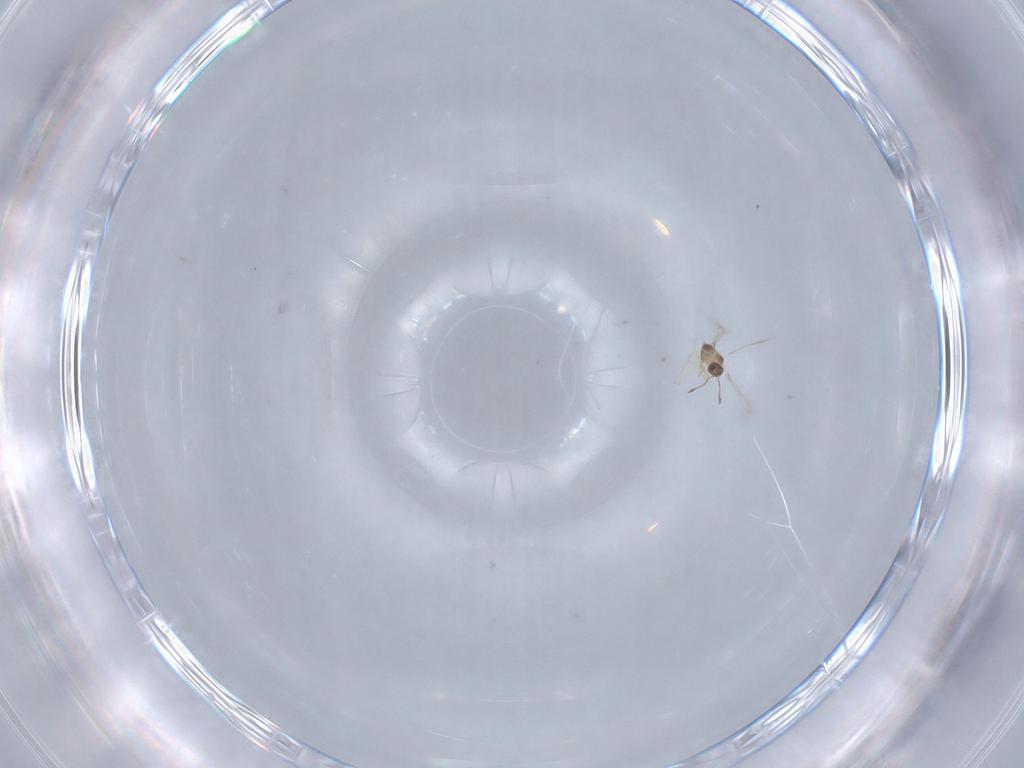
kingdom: Animalia
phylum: Arthropoda
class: Insecta
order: Hymenoptera
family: Mymaridae
